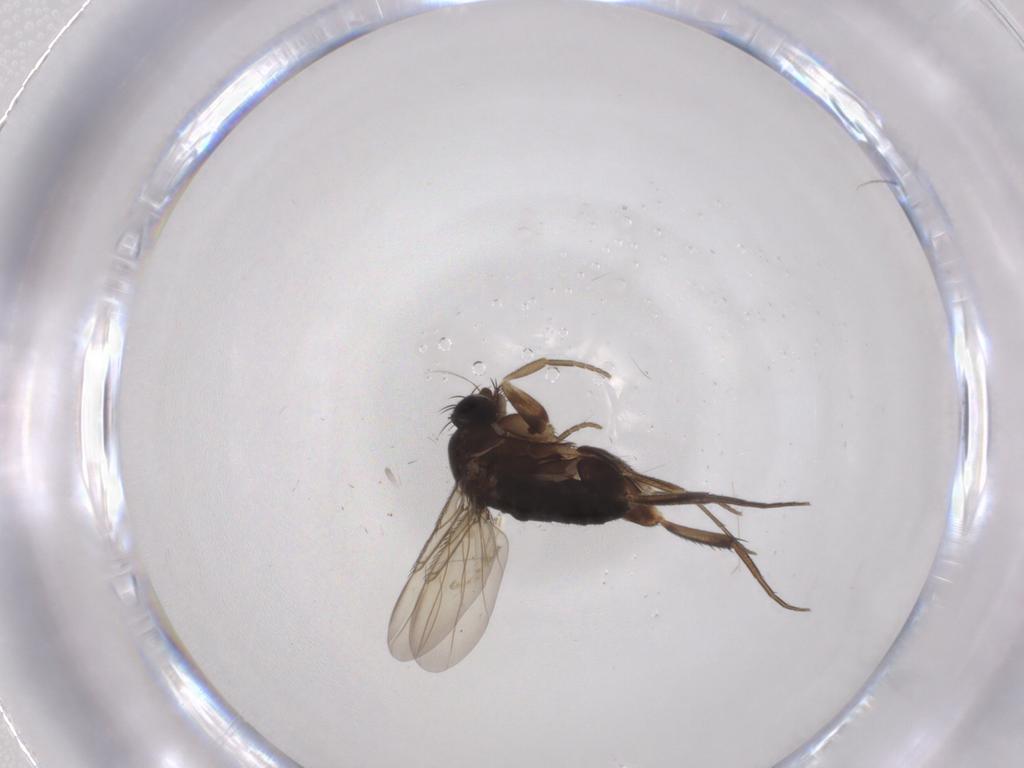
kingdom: Animalia
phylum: Arthropoda
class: Insecta
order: Diptera
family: Phoridae
